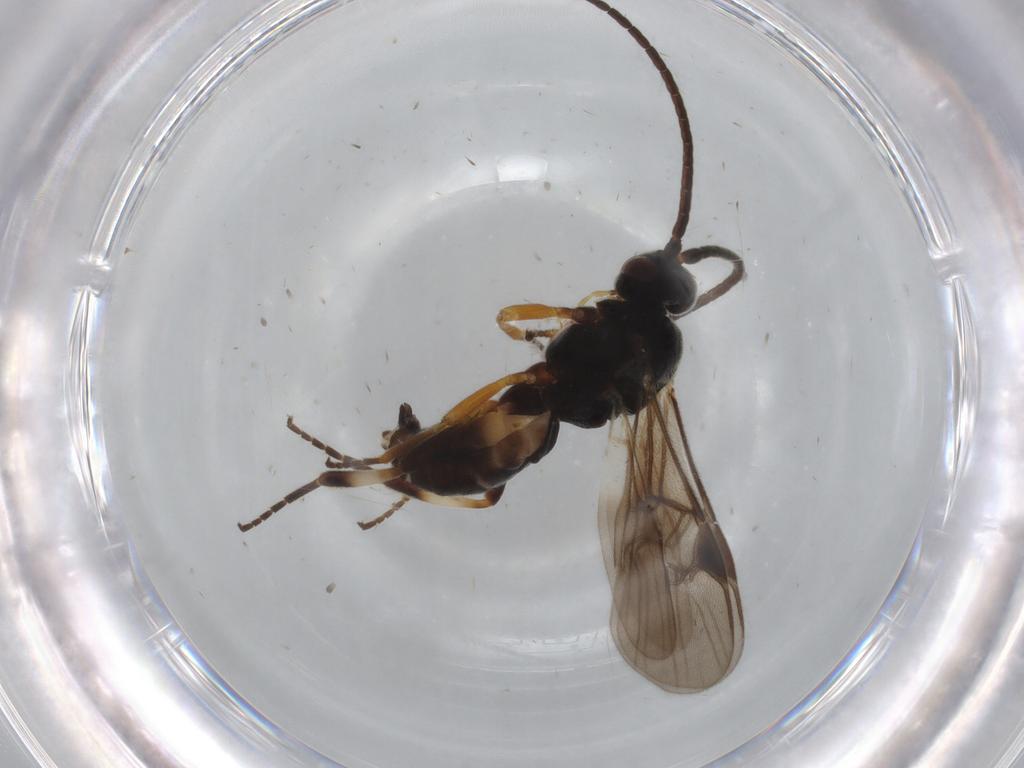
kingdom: Animalia
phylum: Arthropoda
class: Insecta
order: Hymenoptera
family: Braconidae
